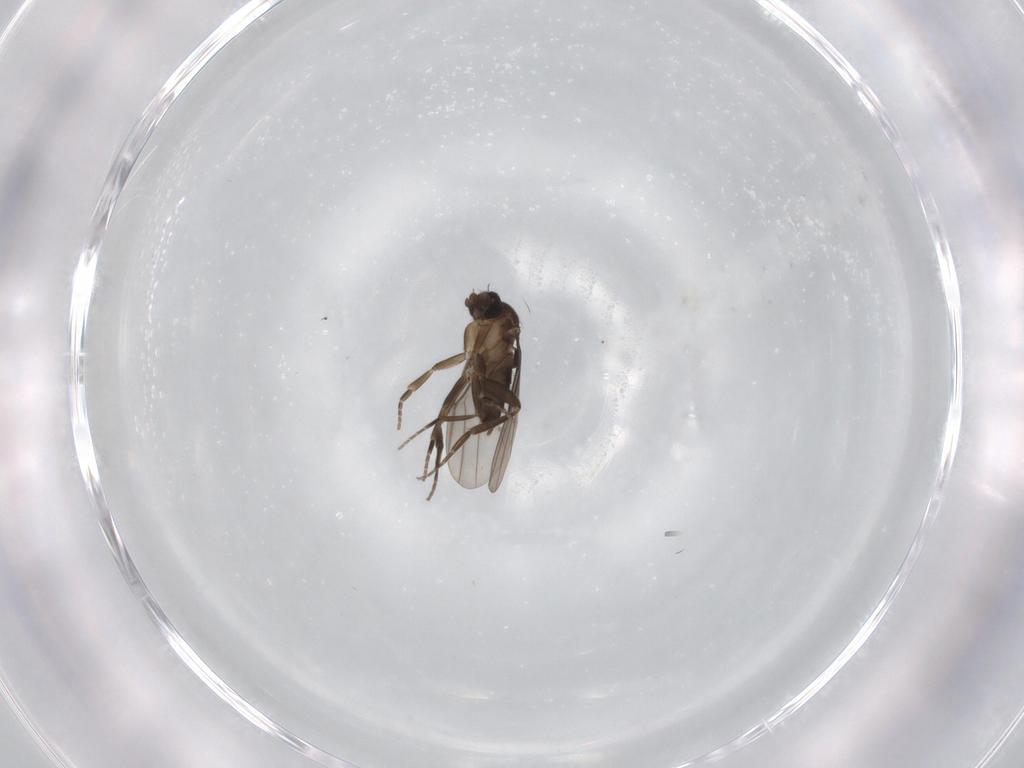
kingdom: Animalia
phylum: Arthropoda
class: Insecta
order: Diptera
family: Phoridae
